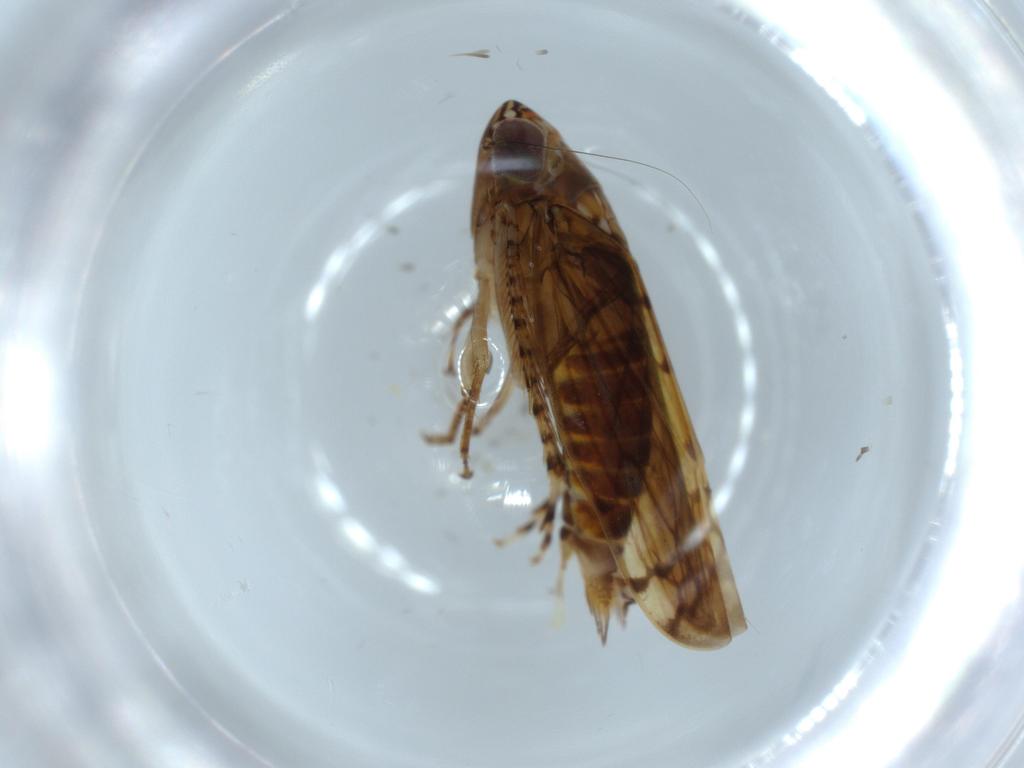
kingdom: Animalia
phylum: Arthropoda
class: Insecta
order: Hemiptera
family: Cicadellidae
